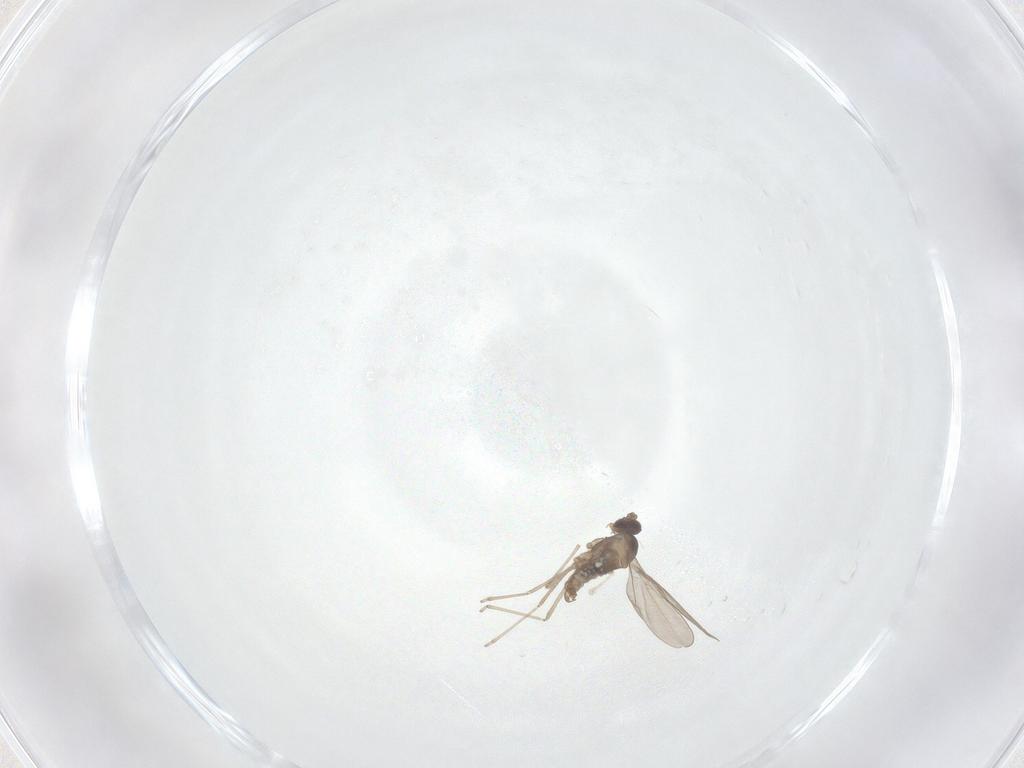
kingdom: Animalia
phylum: Arthropoda
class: Insecta
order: Diptera
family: Cecidomyiidae
